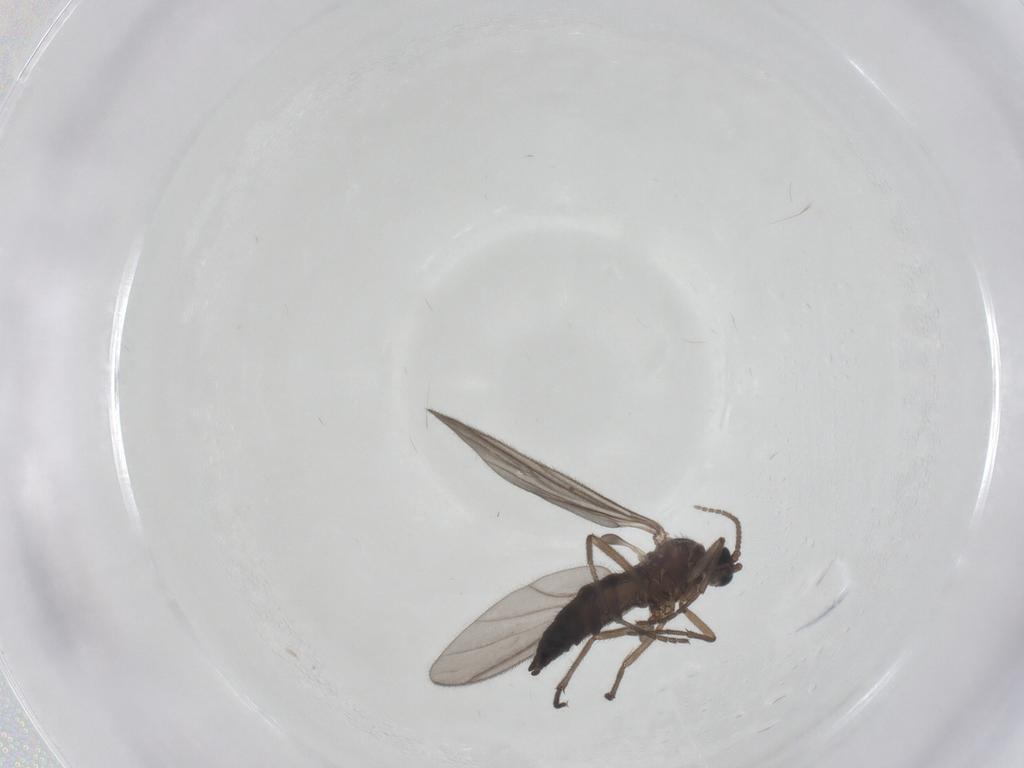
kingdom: Animalia
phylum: Arthropoda
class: Insecta
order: Diptera
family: Sciaridae
